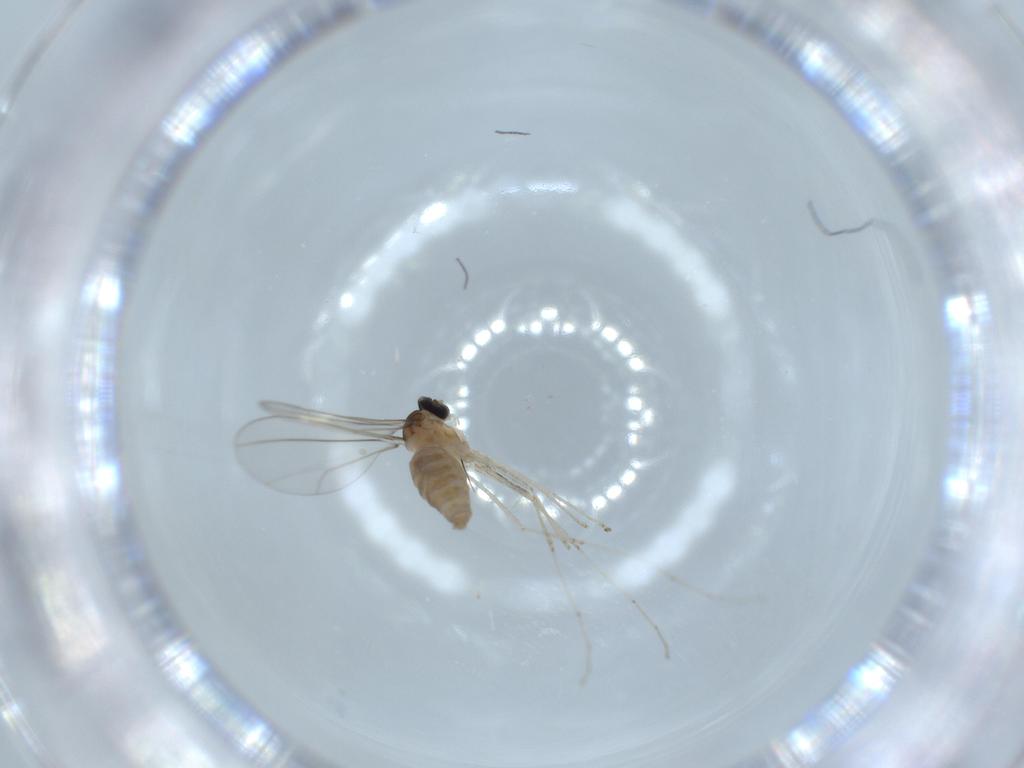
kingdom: Animalia
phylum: Arthropoda
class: Insecta
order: Diptera
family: Cecidomyiidae
